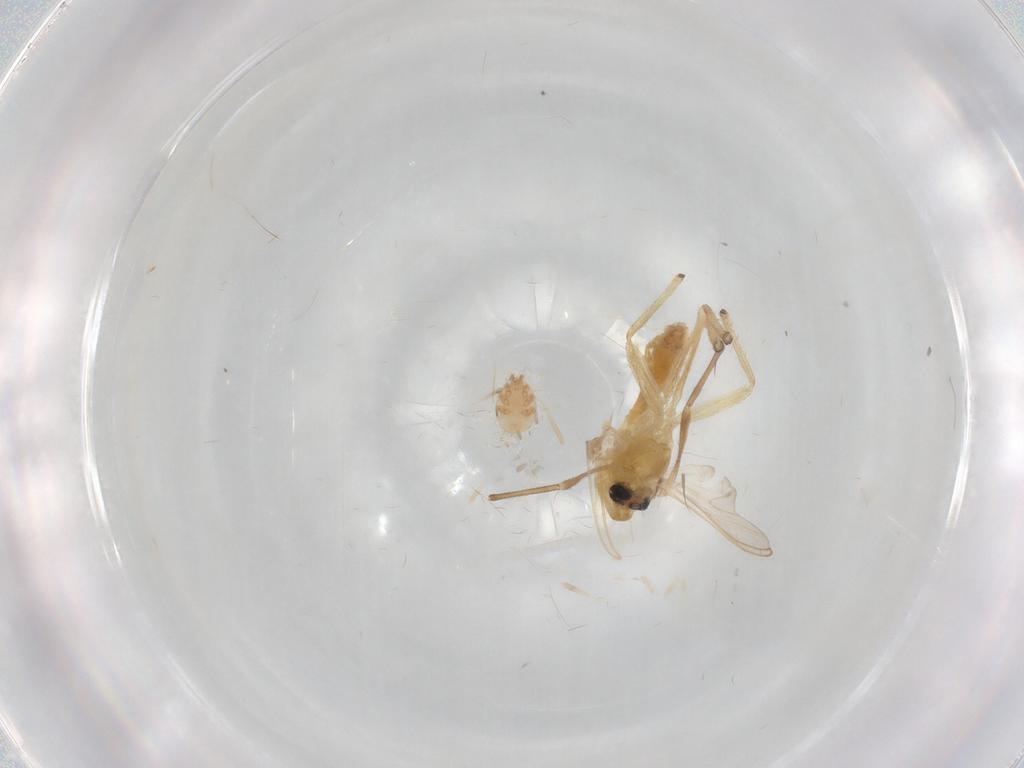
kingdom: Animalia
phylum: Arthropoda
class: Insecta
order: Diptera
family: Chironomidae
